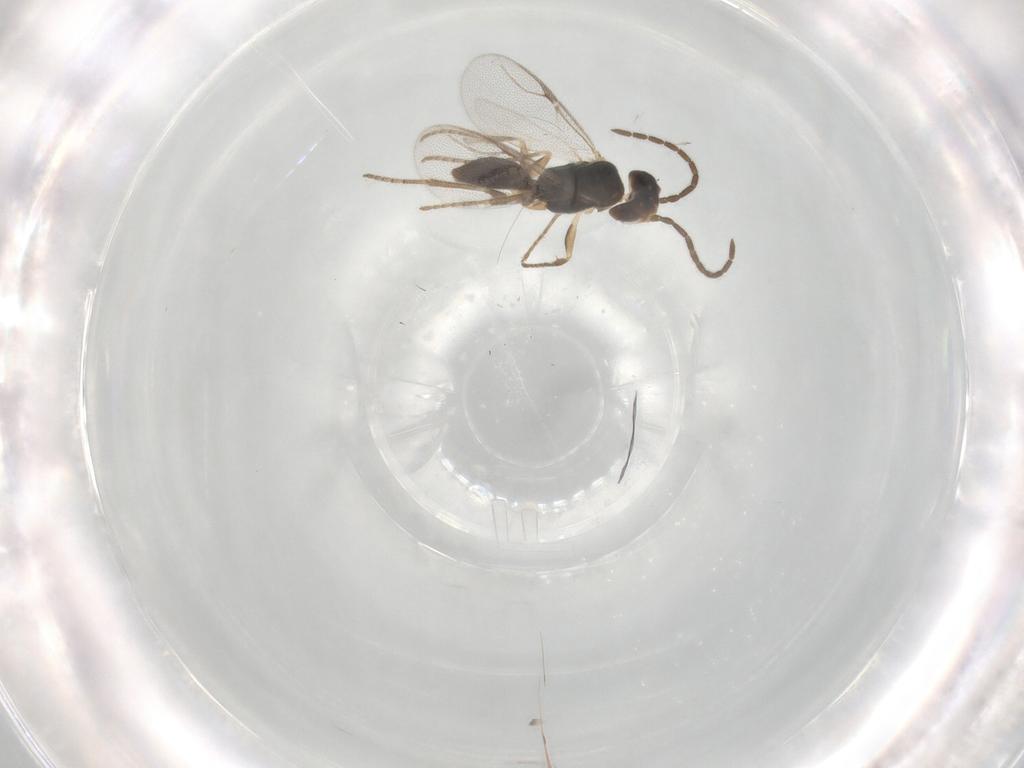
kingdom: Animalia
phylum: Arthropoda
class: Insecta
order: Hymenoptera
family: Dryinidae
